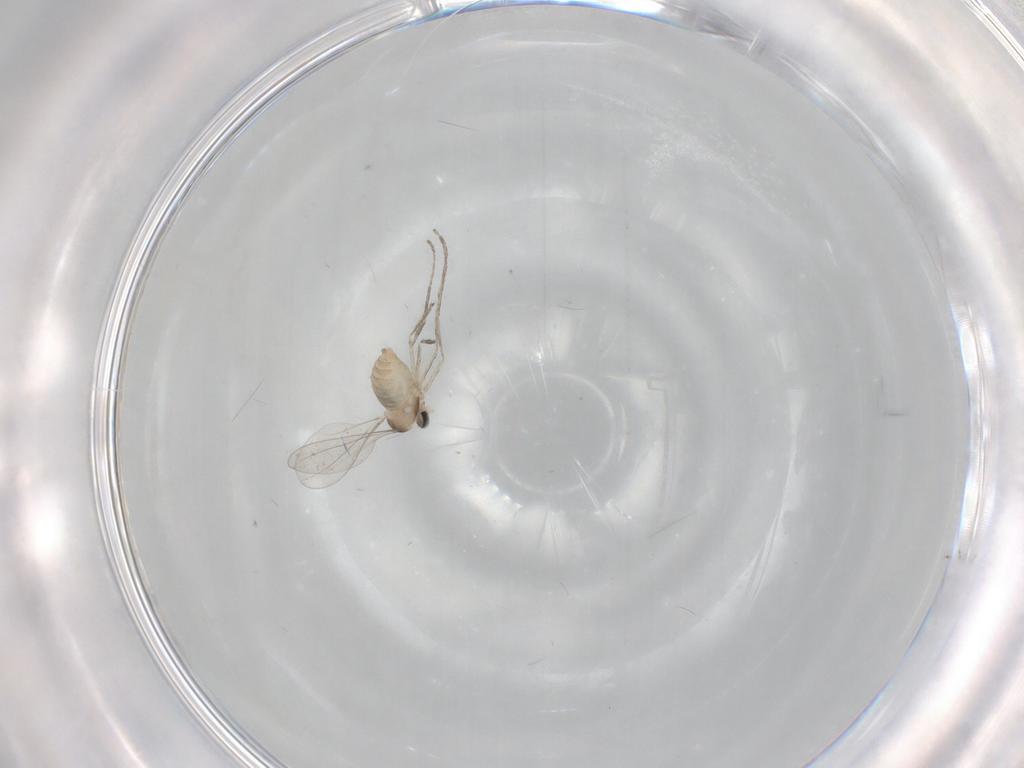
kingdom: Animalia
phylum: Arthropoda
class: Insecta
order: Diptera
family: Cecidomyiidae
